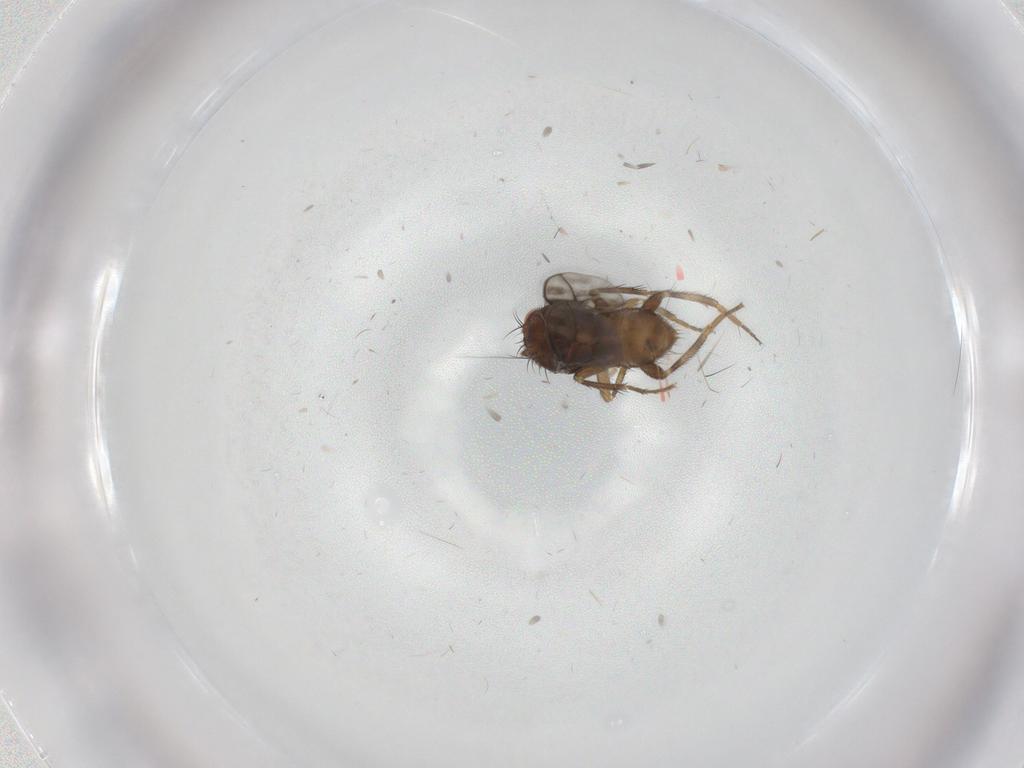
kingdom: Animalia
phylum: Arthropoda
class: Insecta
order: Diptera
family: Sphaeroceridae
